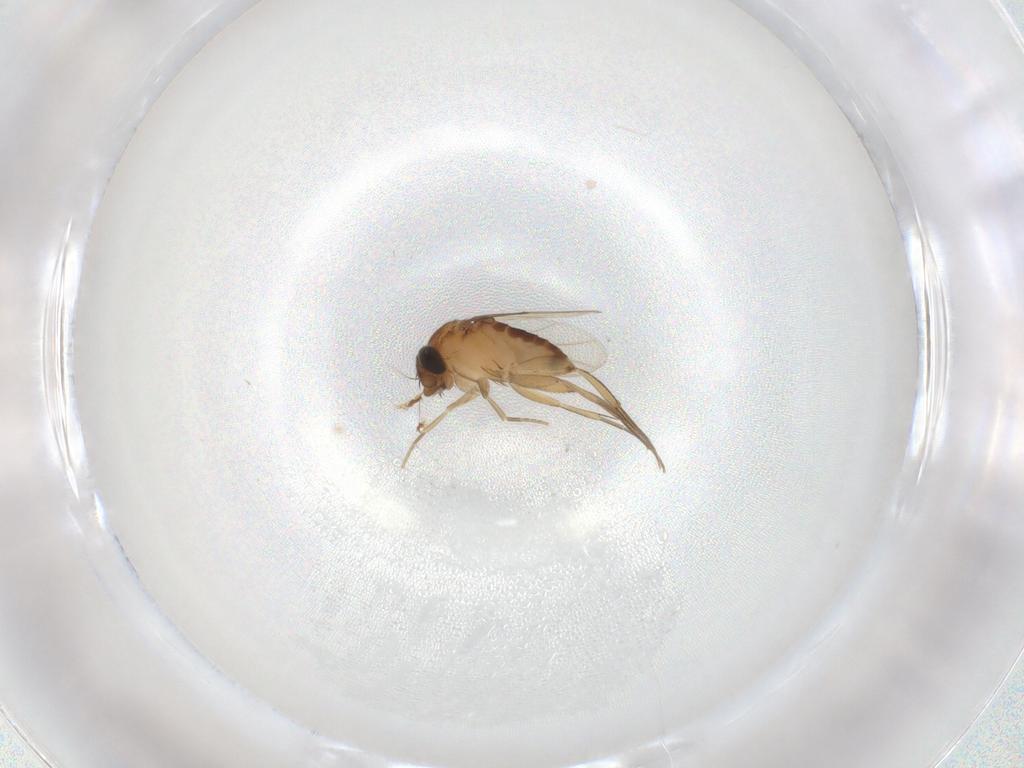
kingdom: Animalia
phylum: Arthropoda
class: Insecta
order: Diptera
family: Phoridae
